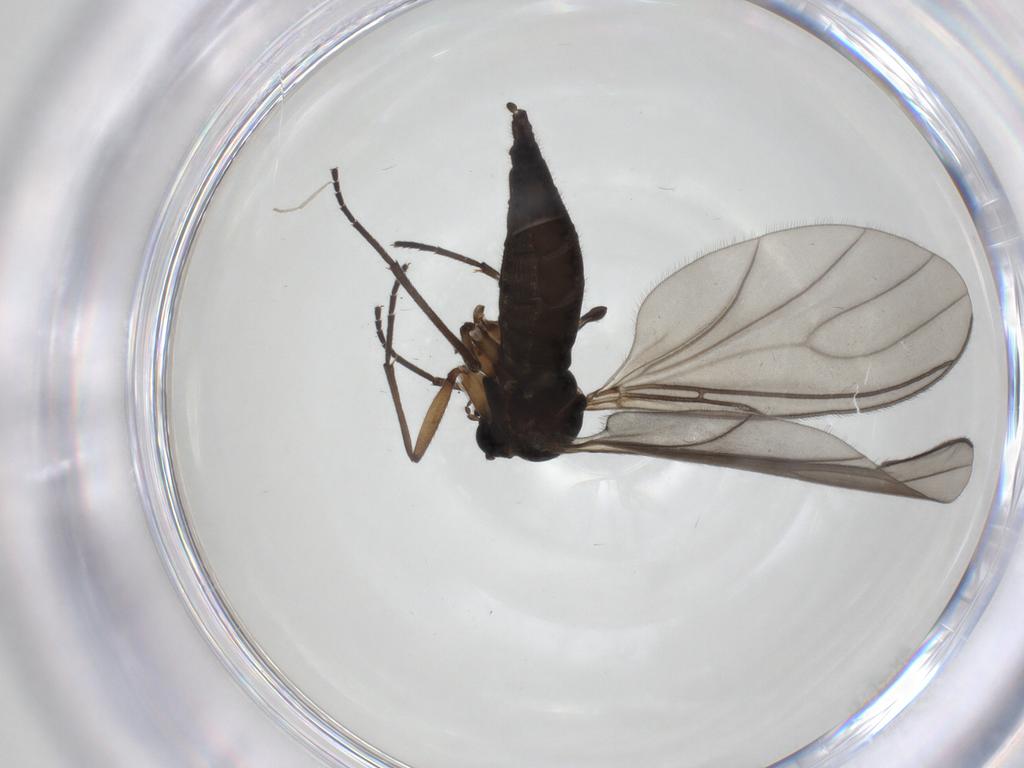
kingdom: Animalia
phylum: Arthropoda
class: Insecta
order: Diptera
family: Sciaridae
